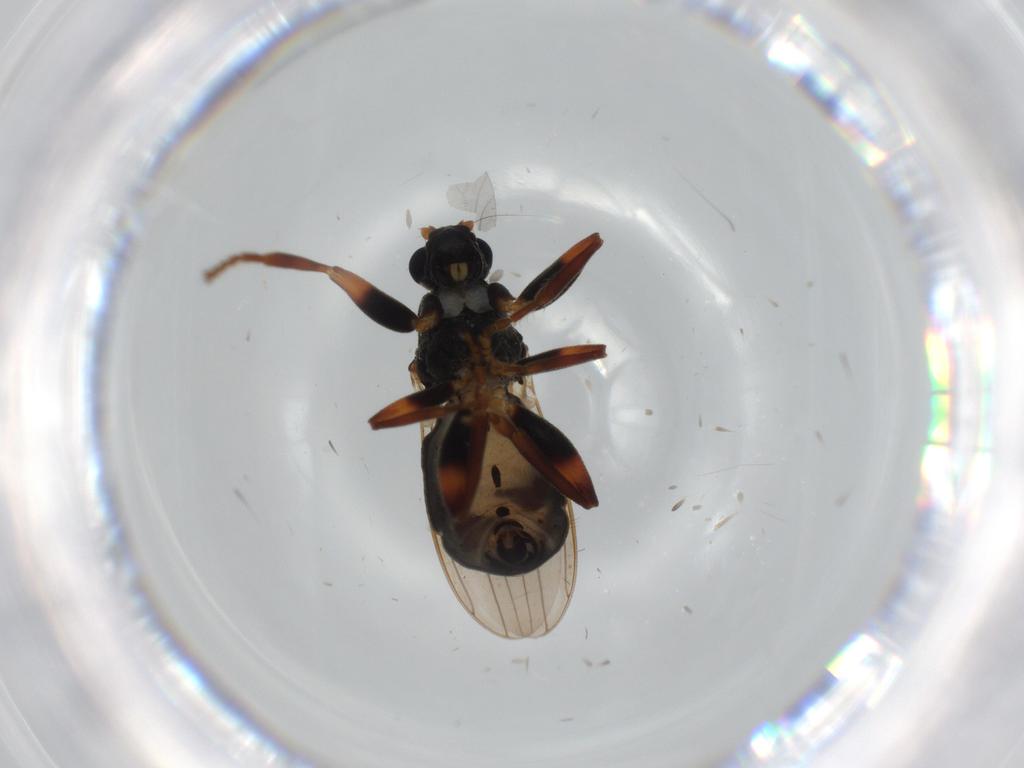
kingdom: Animalia
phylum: Arthropoda
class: Insecta
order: Diptera
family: Milichiidae
